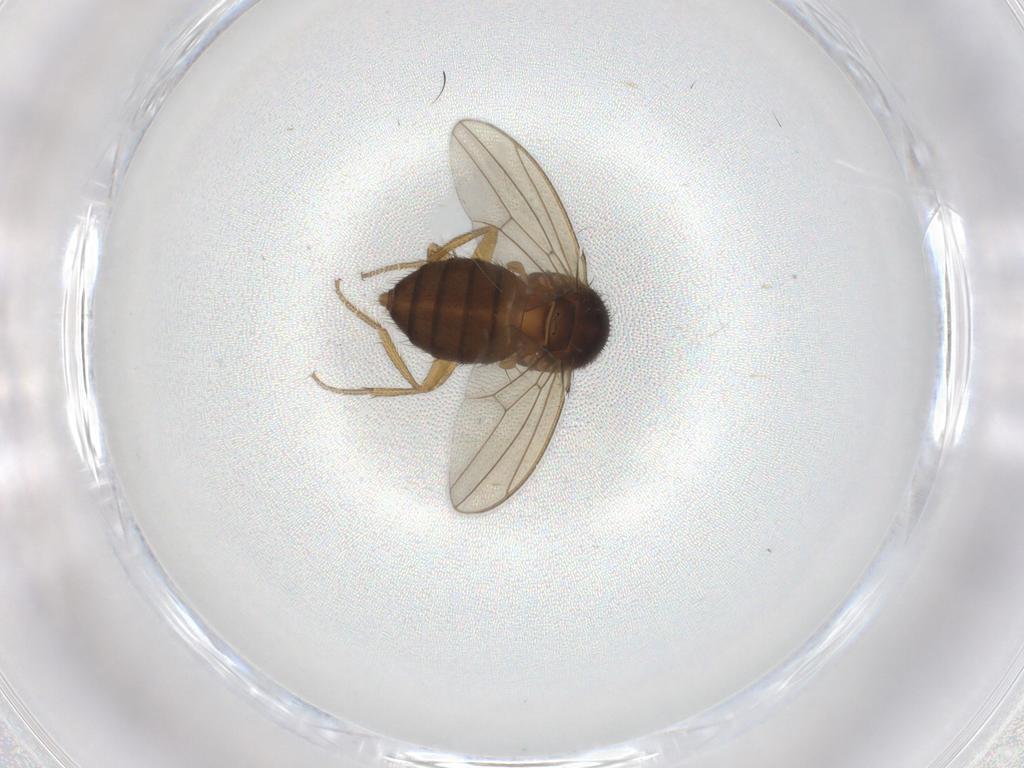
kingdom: Animalia
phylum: Arthropoda
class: Insecta
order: Diptera
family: Drosophilidae
